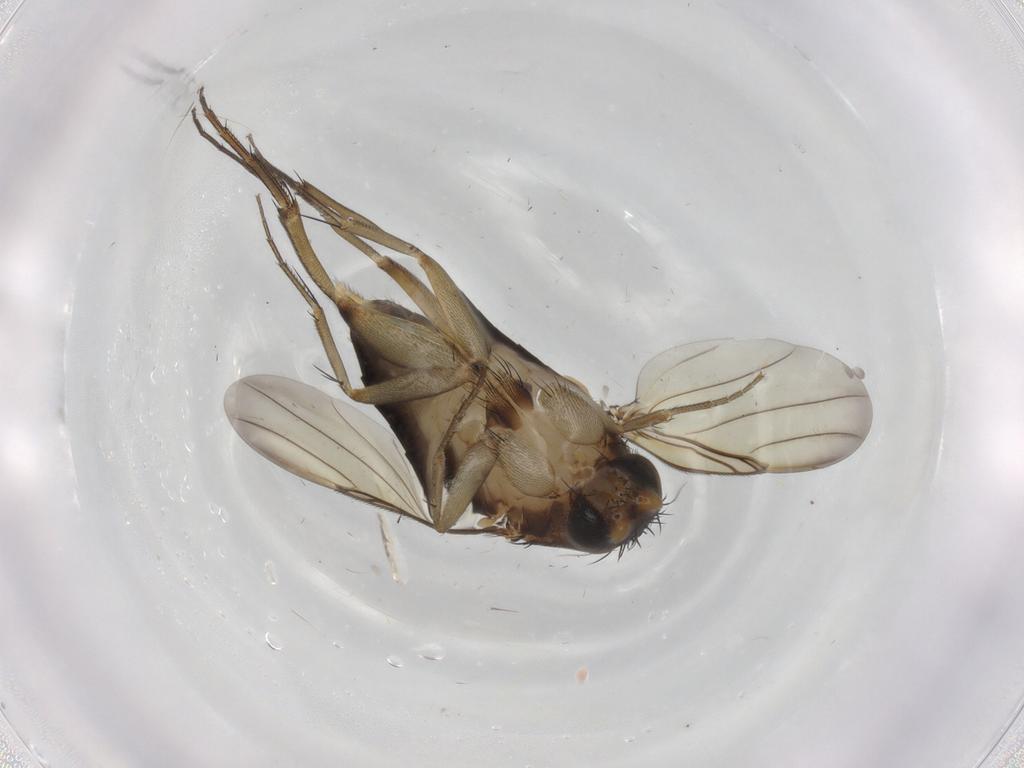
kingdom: Animalia
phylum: Arthropoda
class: Insecta
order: Diptera
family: Phoridae
